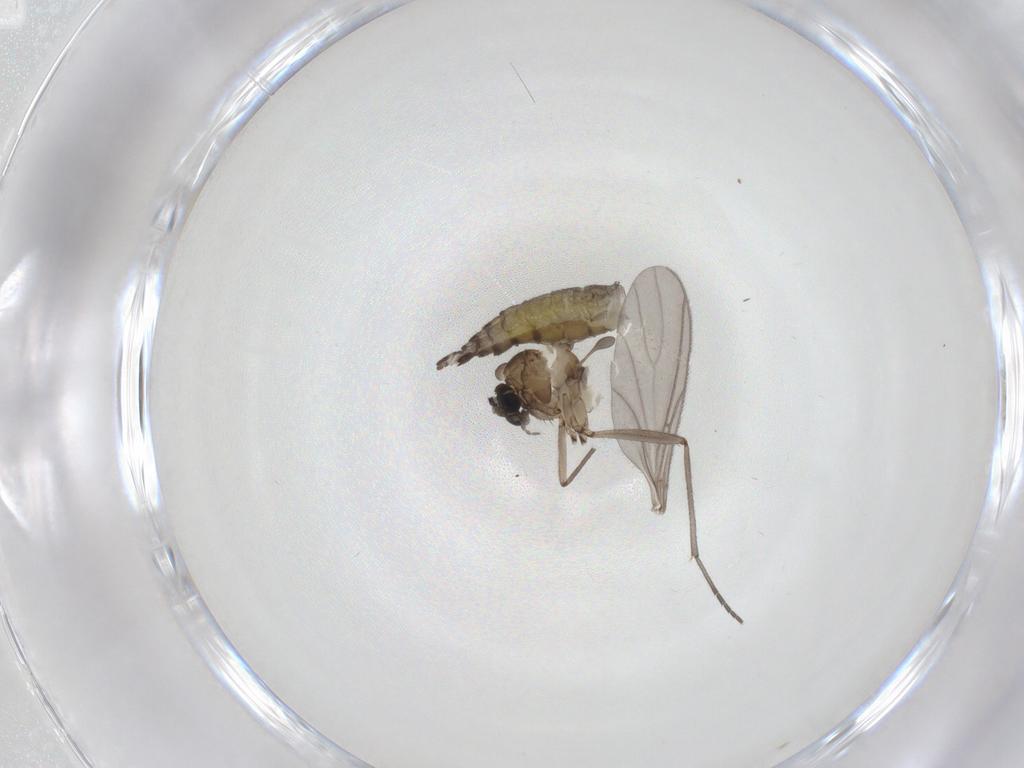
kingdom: Animalia
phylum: Arthropoda
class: Insecta
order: Diptera
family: Sciaridae
